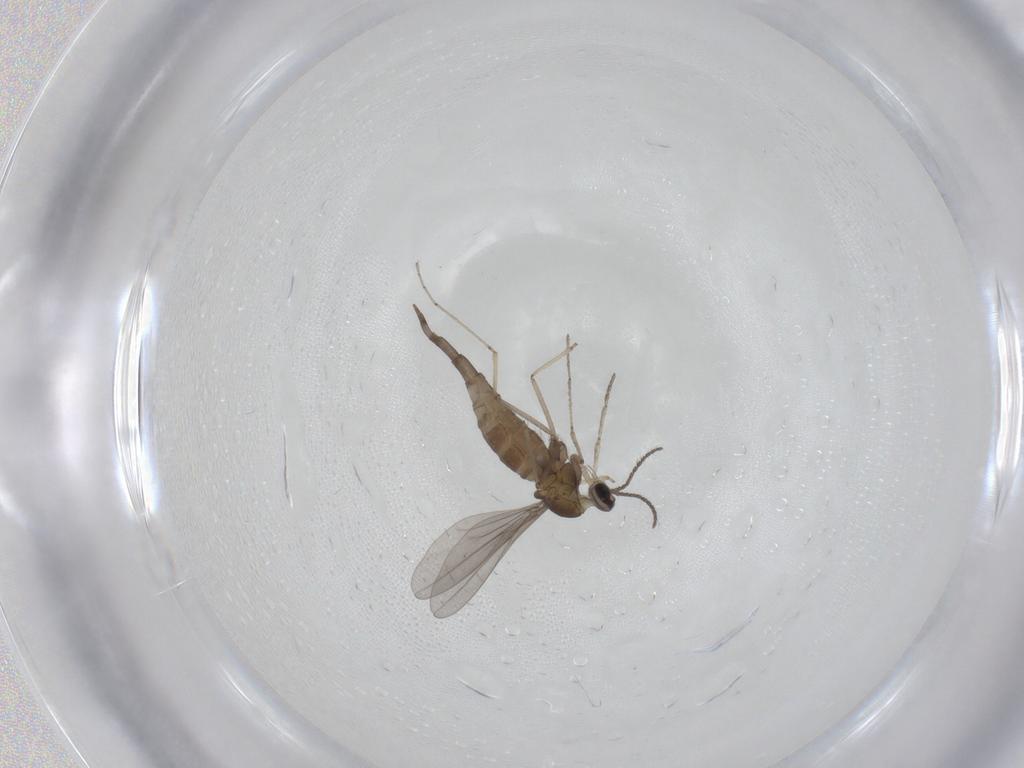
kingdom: Animalia
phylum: Arthropoda
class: Insecta
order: Diptera
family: Cecidomyiidae
